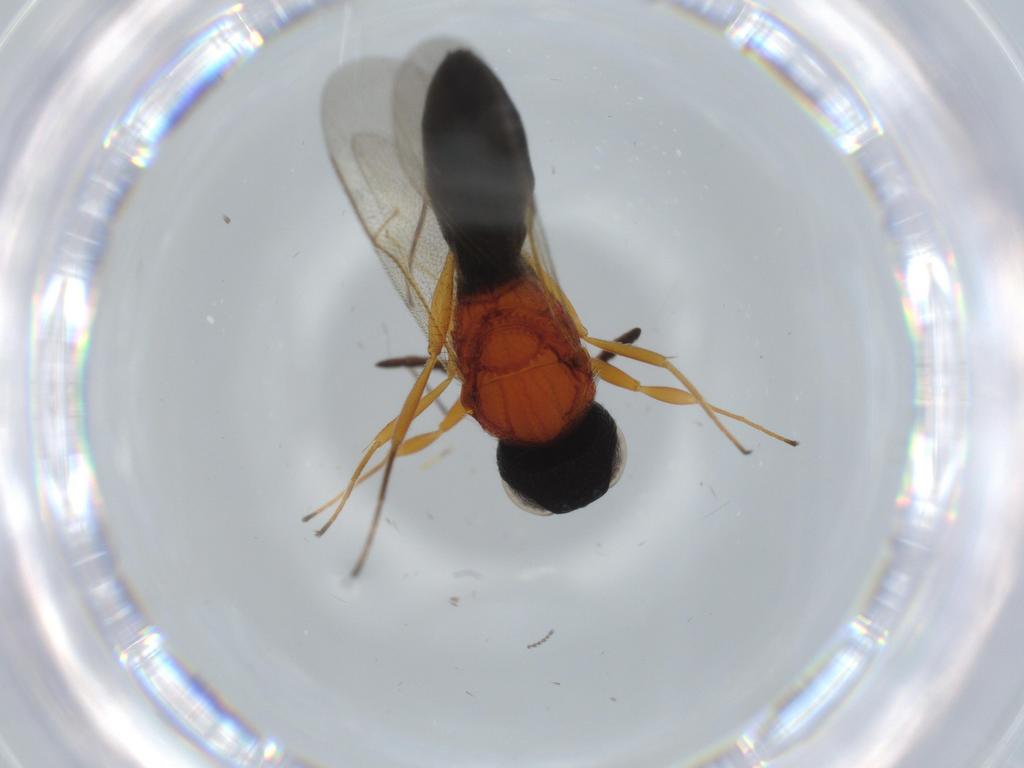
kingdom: Animalia
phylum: Arthropoda
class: Insecta
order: Hymenoptera
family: Scelionidae
